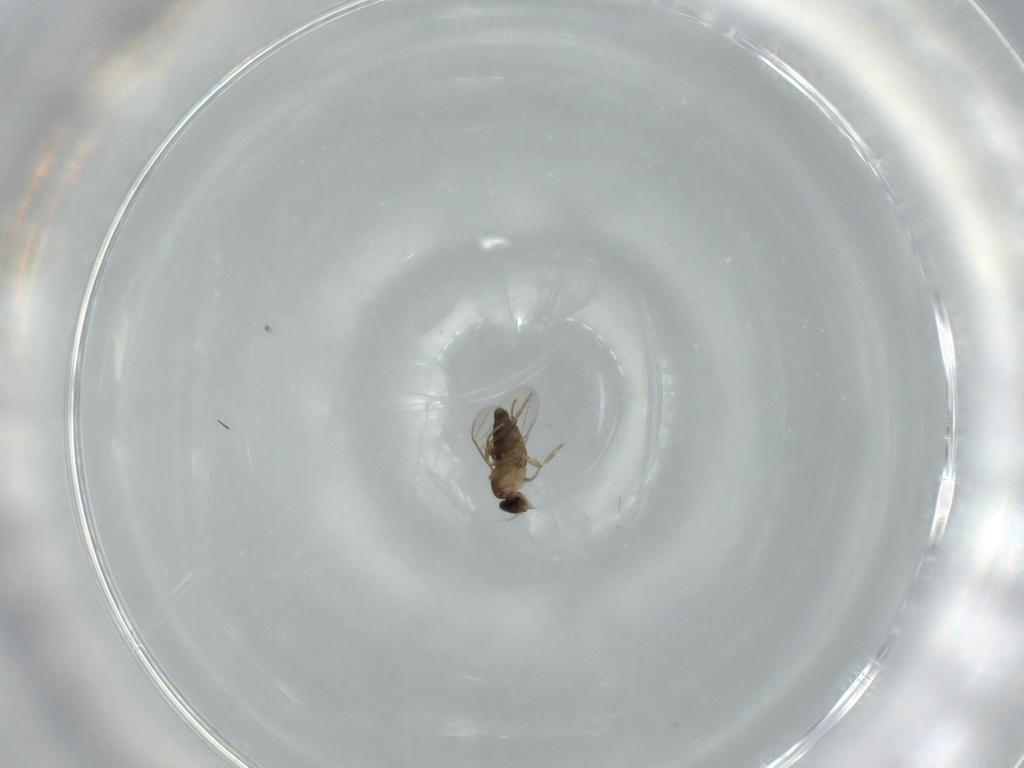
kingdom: Animalia
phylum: Arthropoda
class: Insecta
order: Diptera
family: Phoridae
